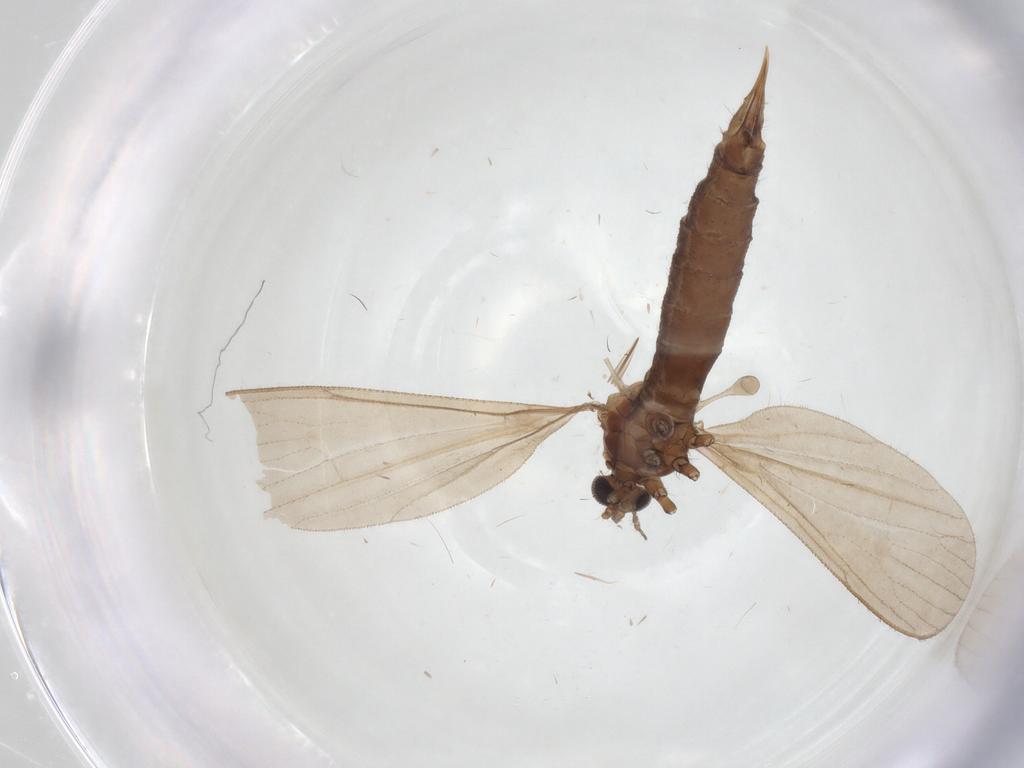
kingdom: Animalia
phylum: Arthropoda
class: Insecta
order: Diptera
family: Limoniidae
